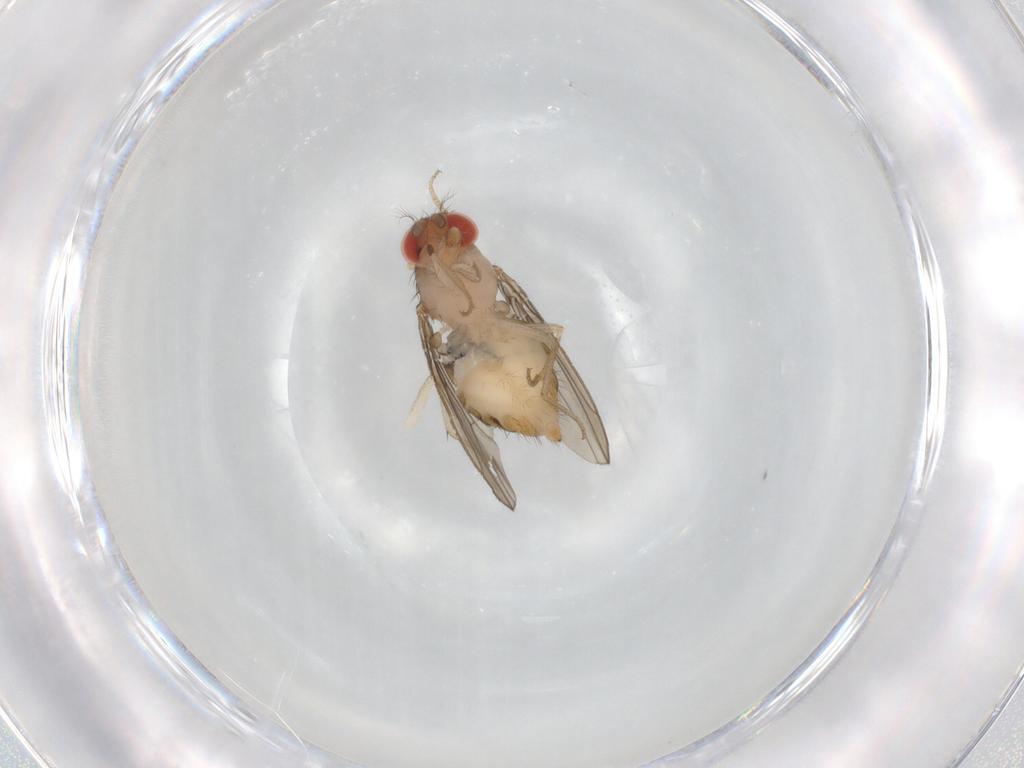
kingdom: Animalia
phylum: Arthropoda
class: Insecta
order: Diptera
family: Drosophilidae
